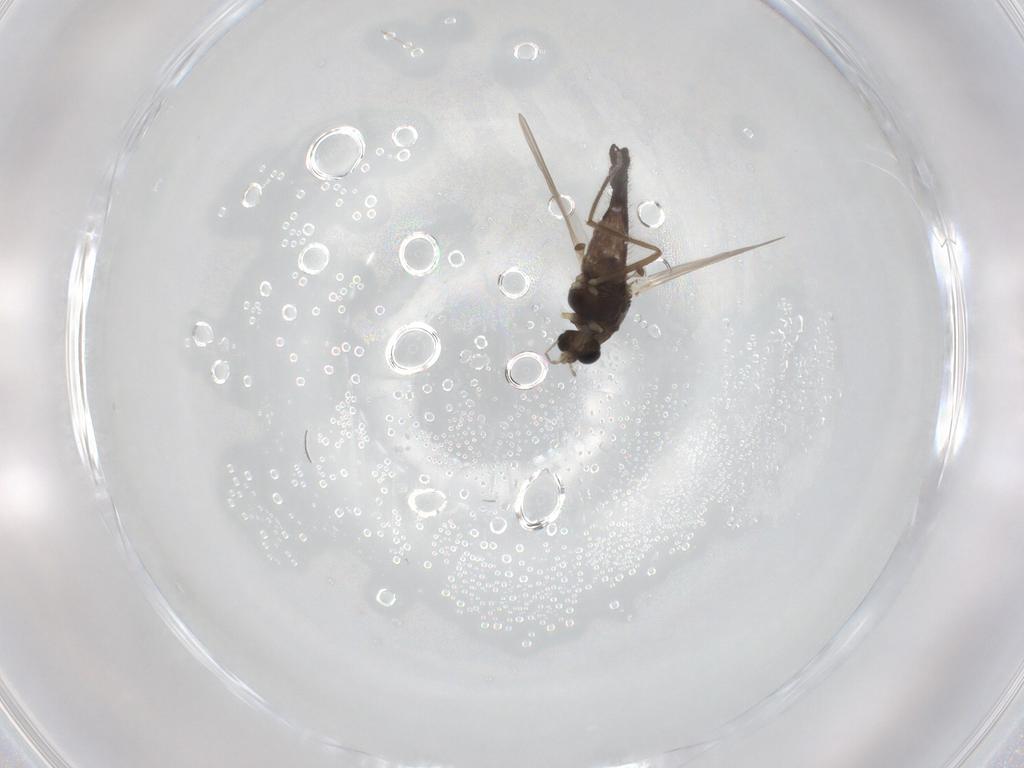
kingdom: Animalia
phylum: Arthropoda
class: Insecta
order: Diptera
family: Chironomidae
